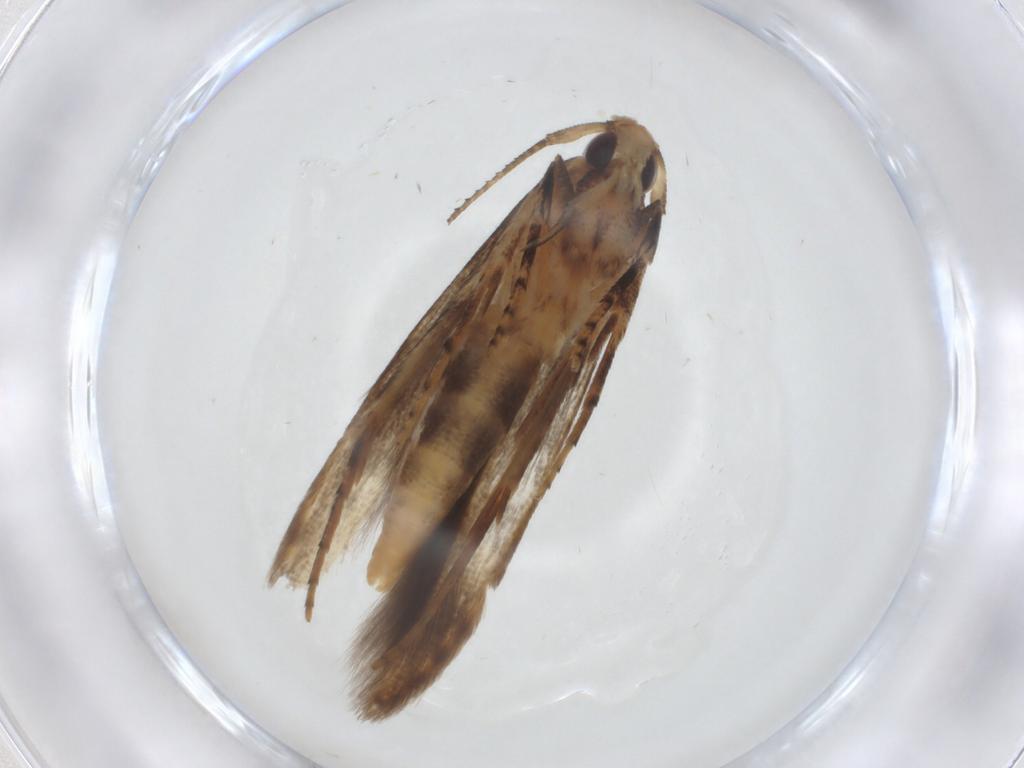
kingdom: Animalia
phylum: Arthropoda
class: Insecta
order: Lepidoptera
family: Heliodinidae
